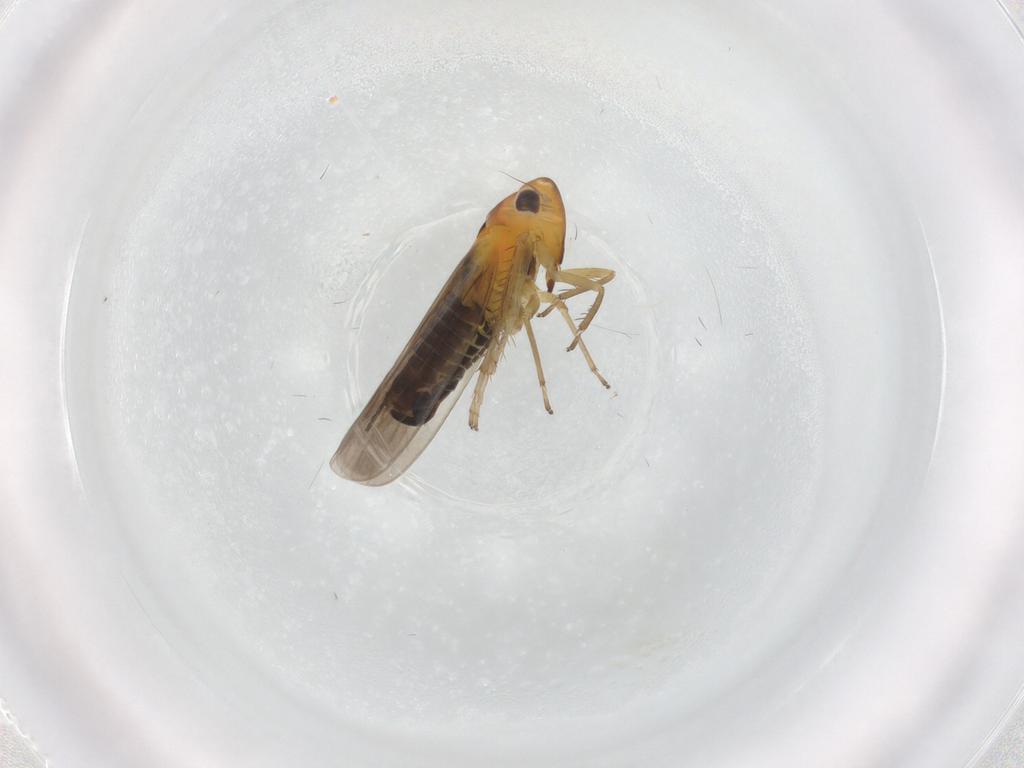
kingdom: Animalia
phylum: Arthropoda
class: Insecta
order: Hemiptera
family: Cicadellidae
